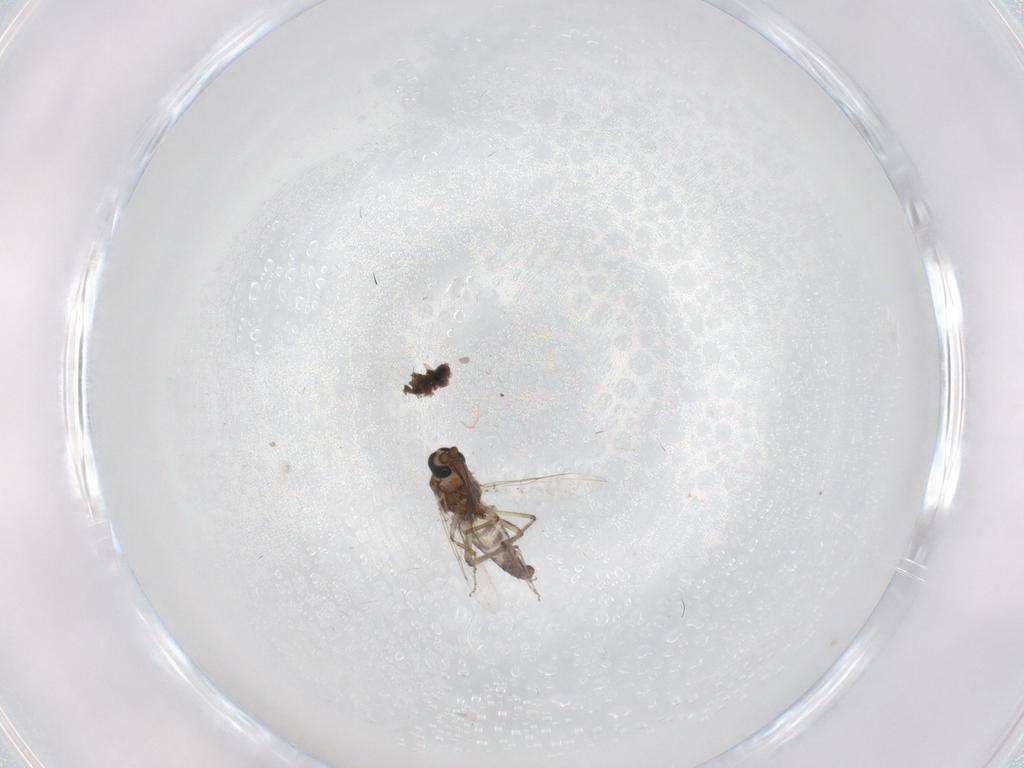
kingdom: Animalia
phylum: Arthropoda
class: Insecta
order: Diptera
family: Ceratopogonidae
